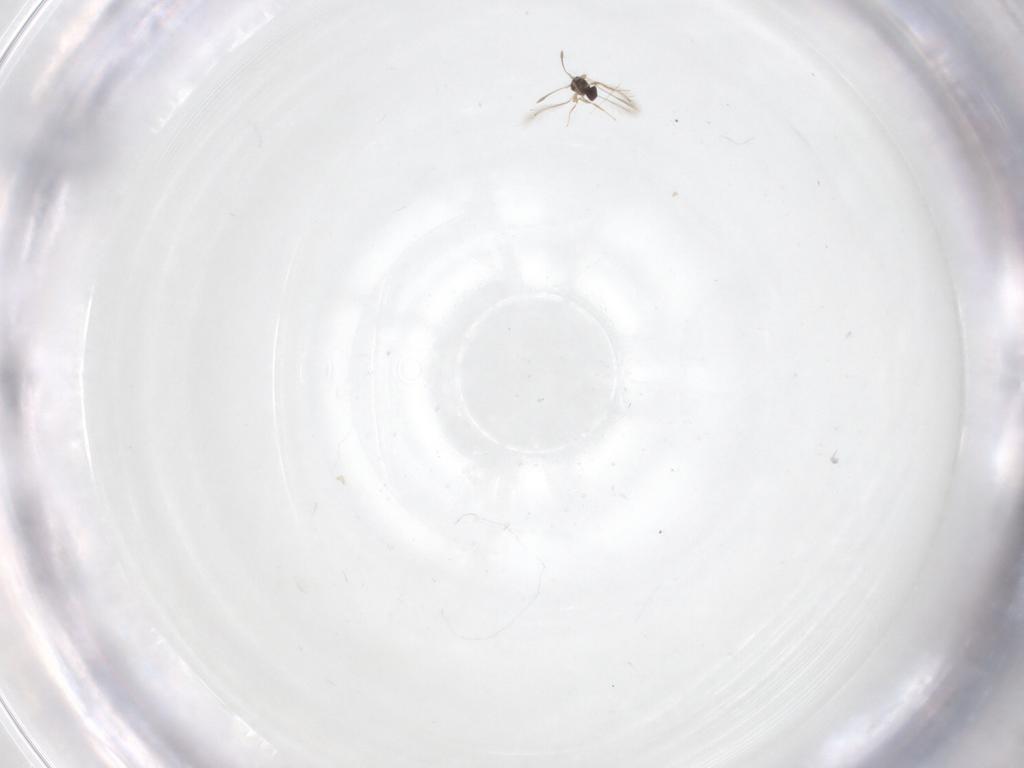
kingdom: Animalia
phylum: Arthropoda
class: Insecta
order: Hymenoptera
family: Mymaridae
